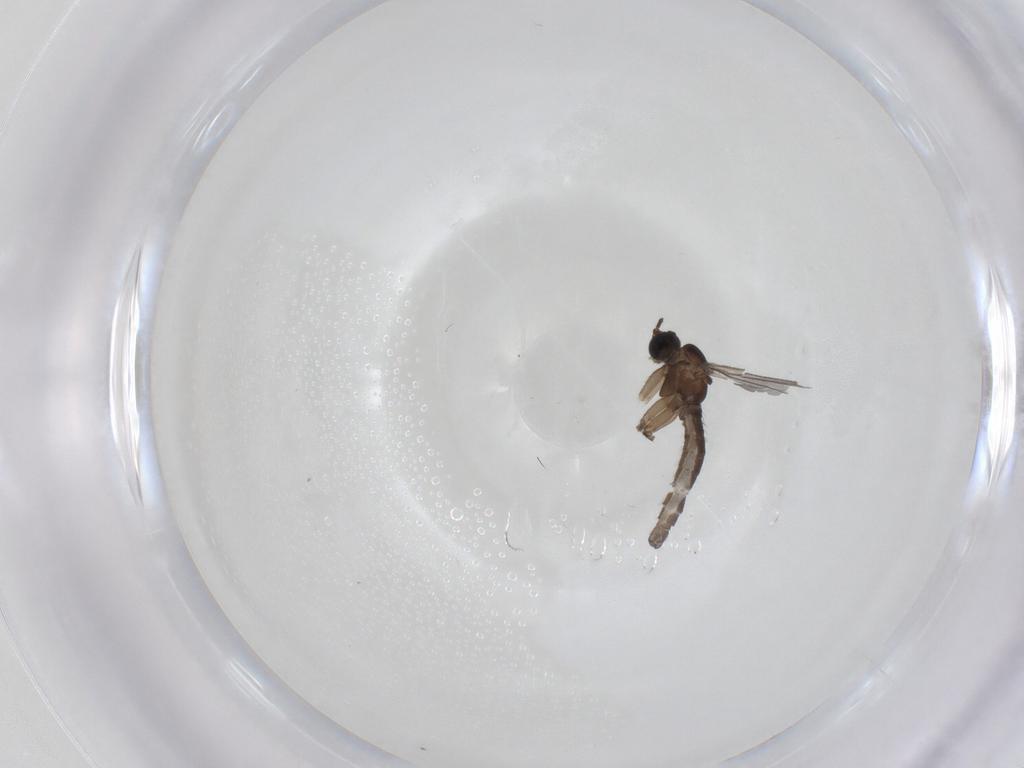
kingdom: Animalia
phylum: Arthropoda
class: Insecta
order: Diptera
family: Sciaridae
